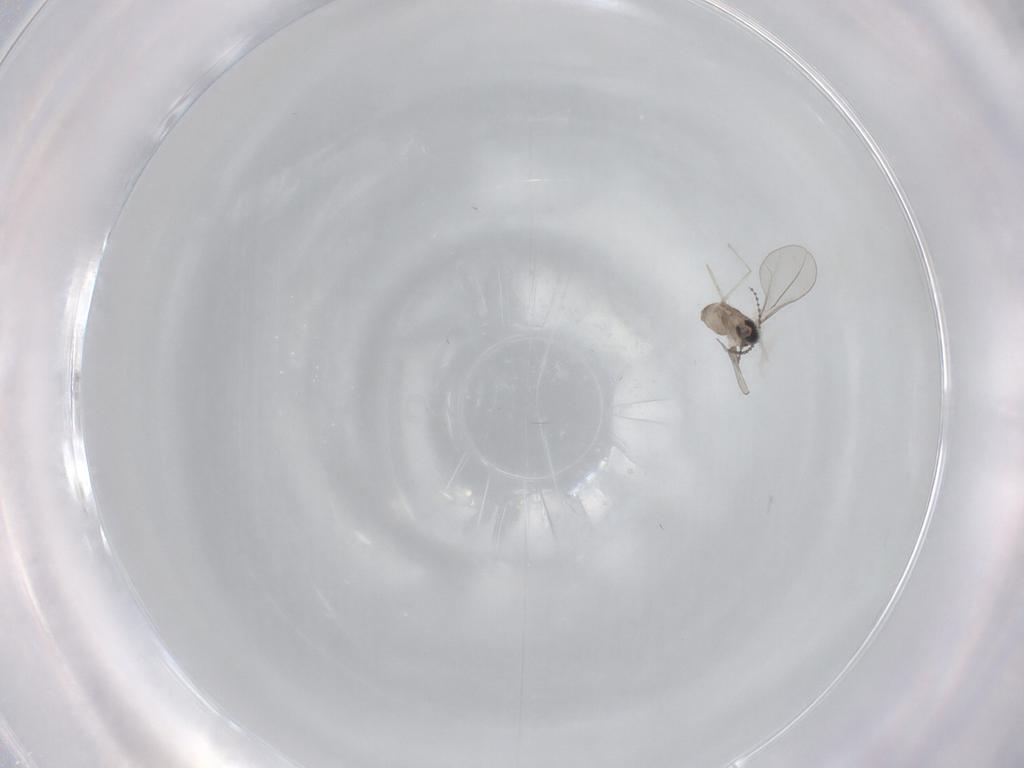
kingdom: Animalia
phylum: Arthropoda
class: Insecta
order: Diptera
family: Cecidomyiidae
